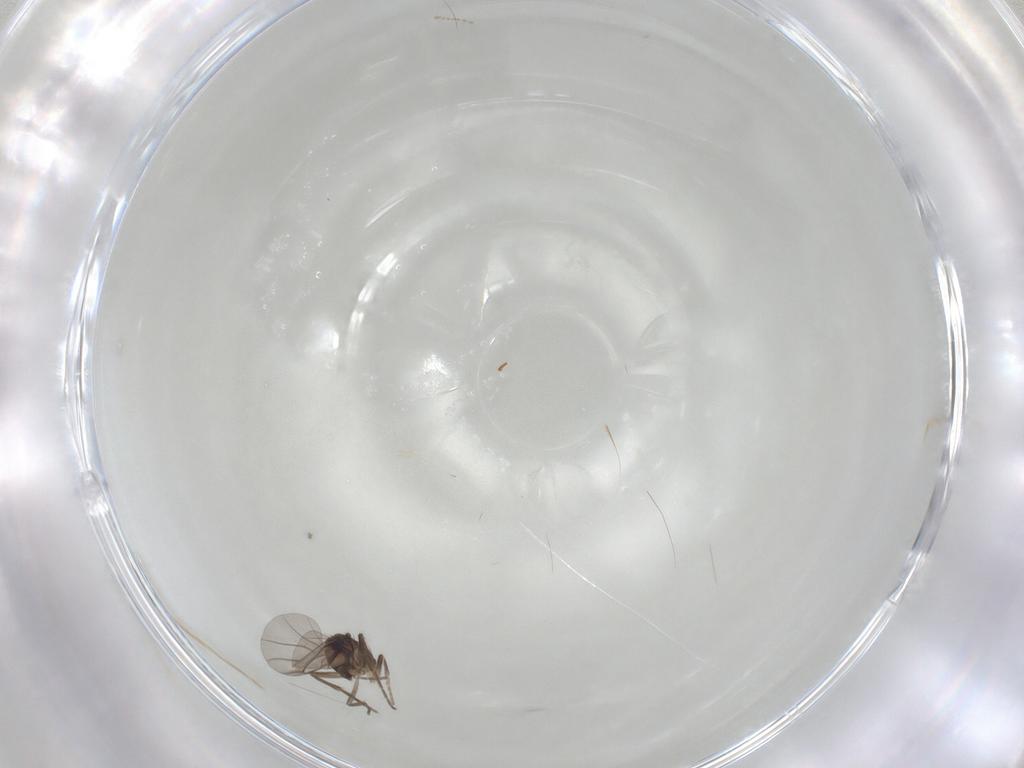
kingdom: Animalia
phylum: Arthropoda
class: Insecta
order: Diptera
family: Psychodidae
